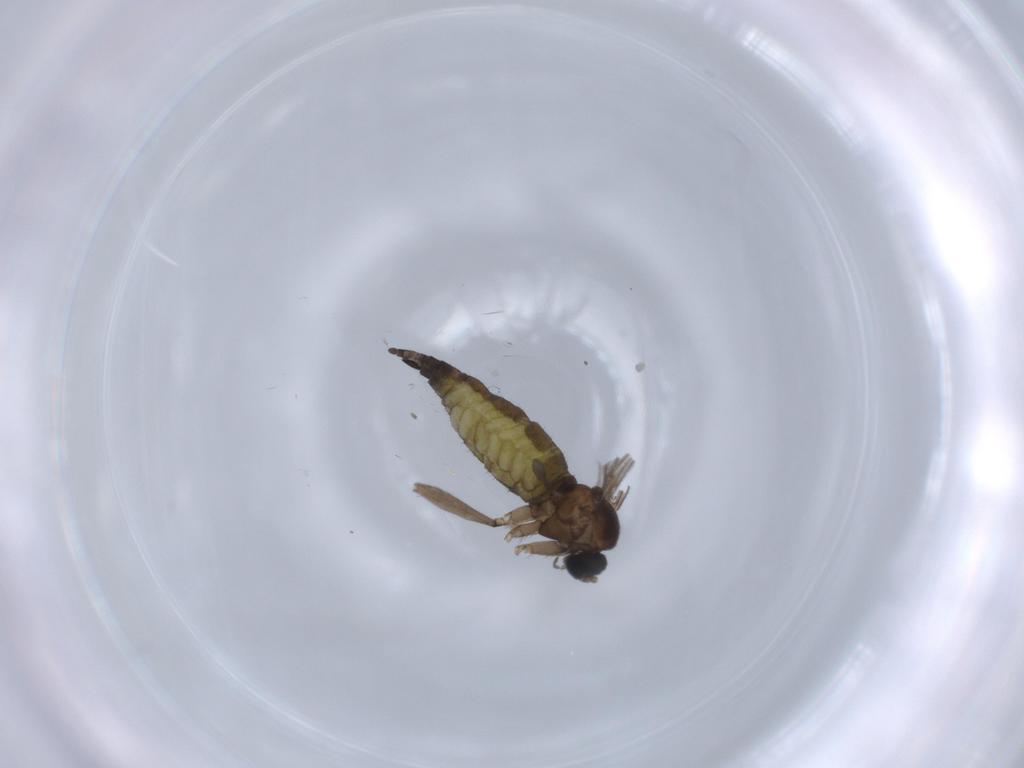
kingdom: Animalia
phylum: Arthropoda
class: Insecta
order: Diptera
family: Sciaridae
